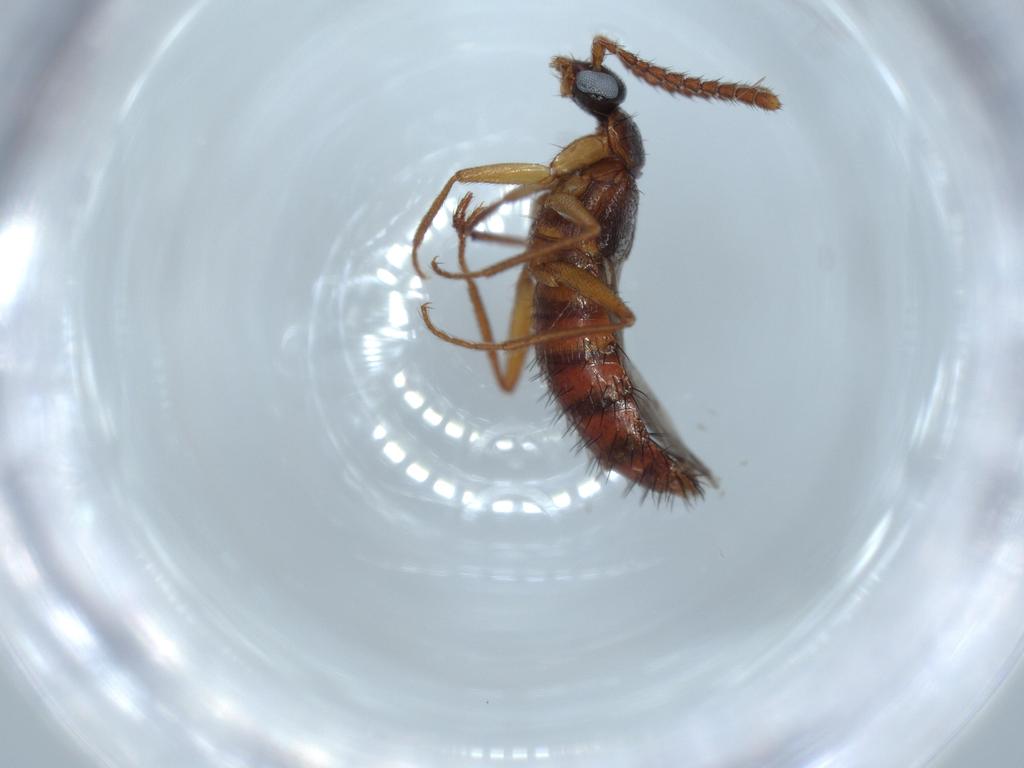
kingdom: Animalia
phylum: Arthropoda
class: Insecta
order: Coleoptera
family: Staphylinidae
